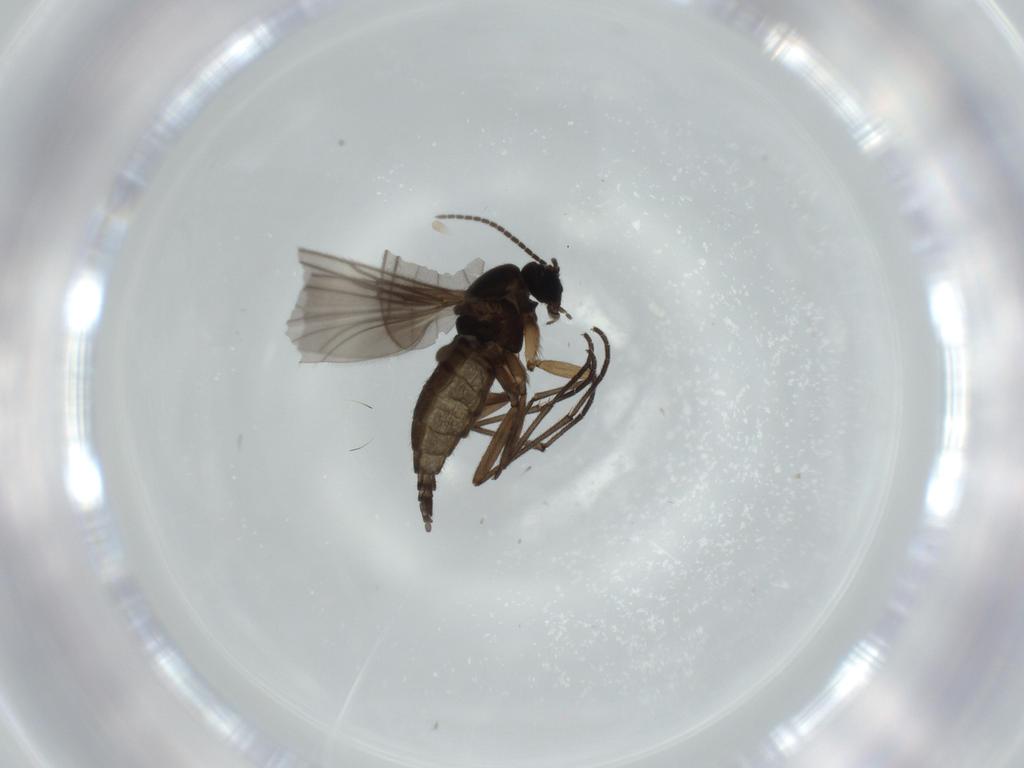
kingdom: Animalia
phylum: Arthropoda
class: Insecta
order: Diptera
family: Sciaridae
